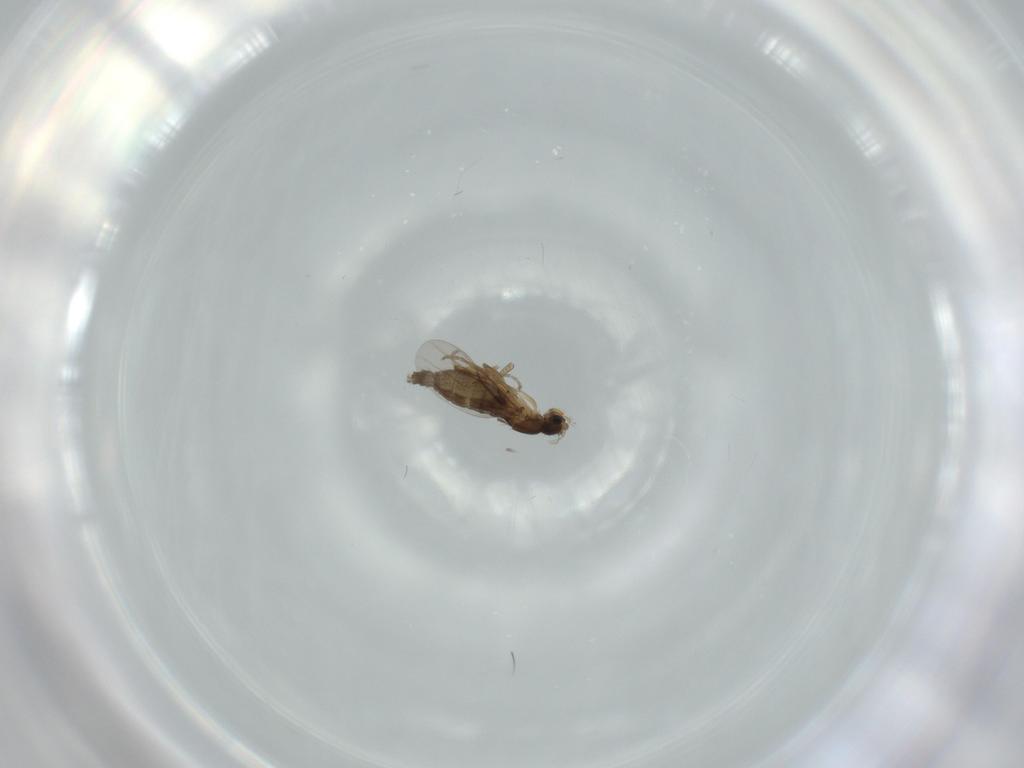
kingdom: Animalia
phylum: Arthropoda
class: Insecta
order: Diptera
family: Phoridae
